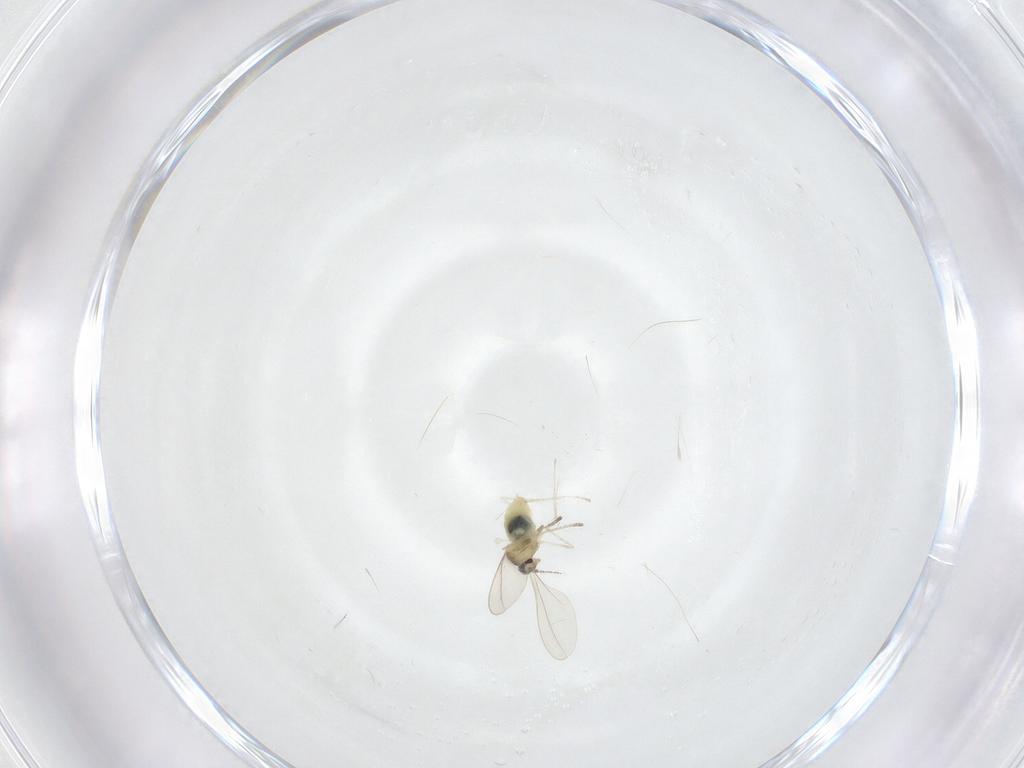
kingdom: Animalia
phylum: Arthropoda
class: Insecta
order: Diptera
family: Cecidomyiidae
